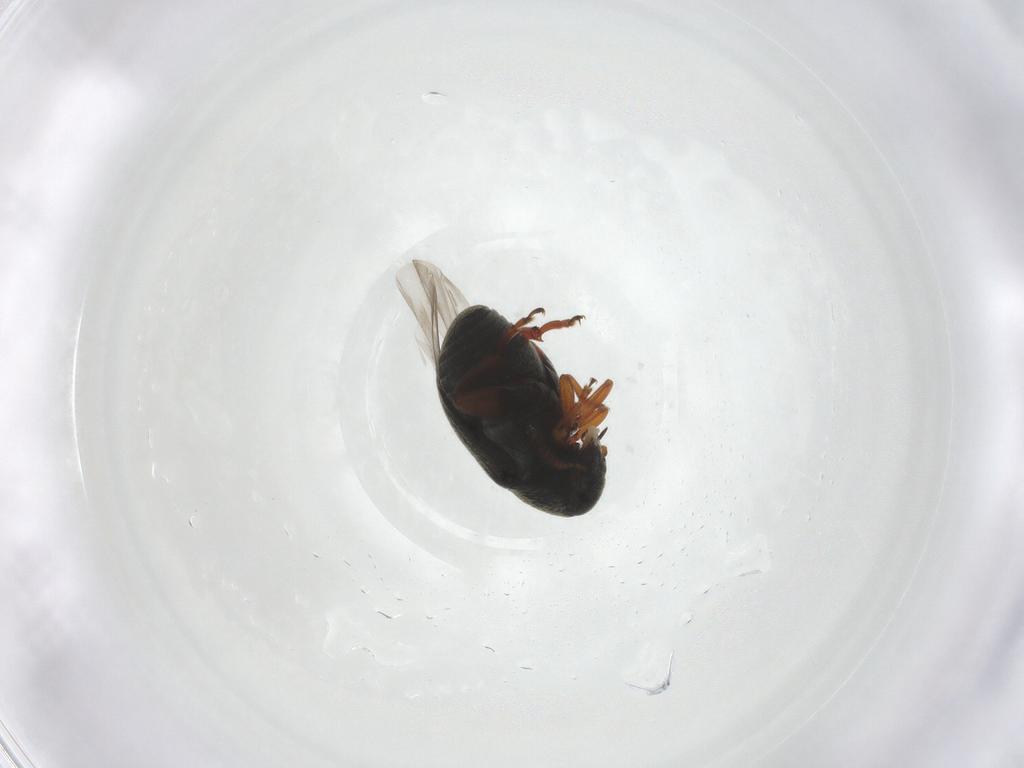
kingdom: Animalia
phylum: Arthropoda
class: Insecta
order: Coleoptera
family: Chrysomelidae
